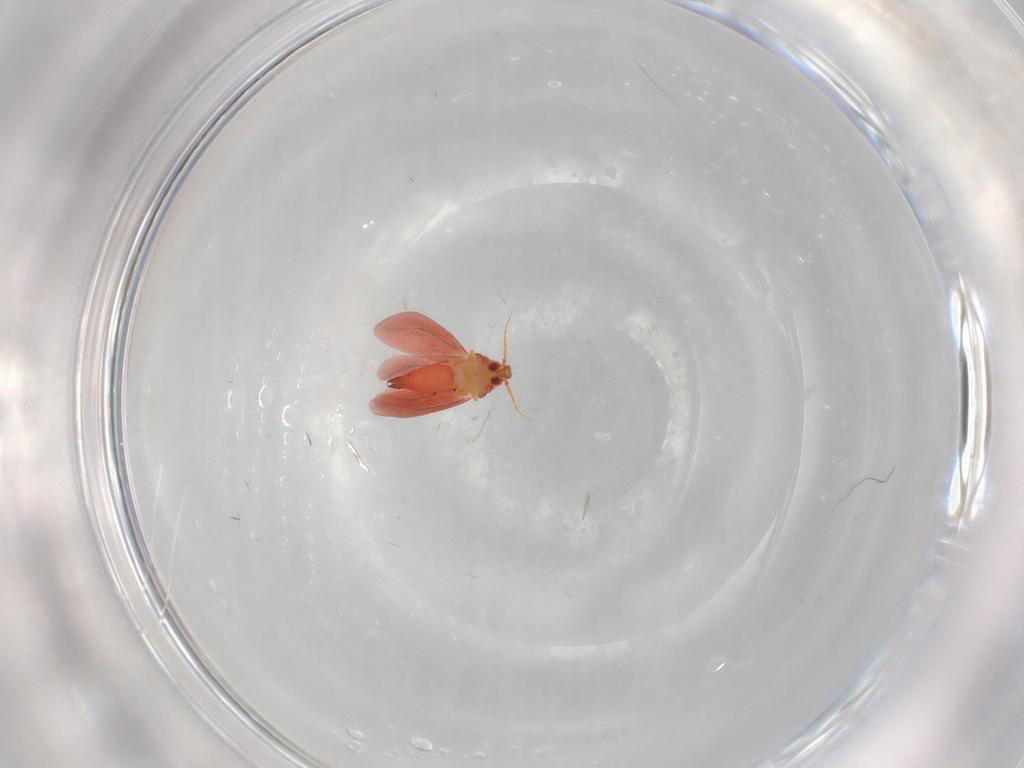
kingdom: Animalia
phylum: Arthropoda
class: Insecta
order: Hemiptera
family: Aleyrodidae
